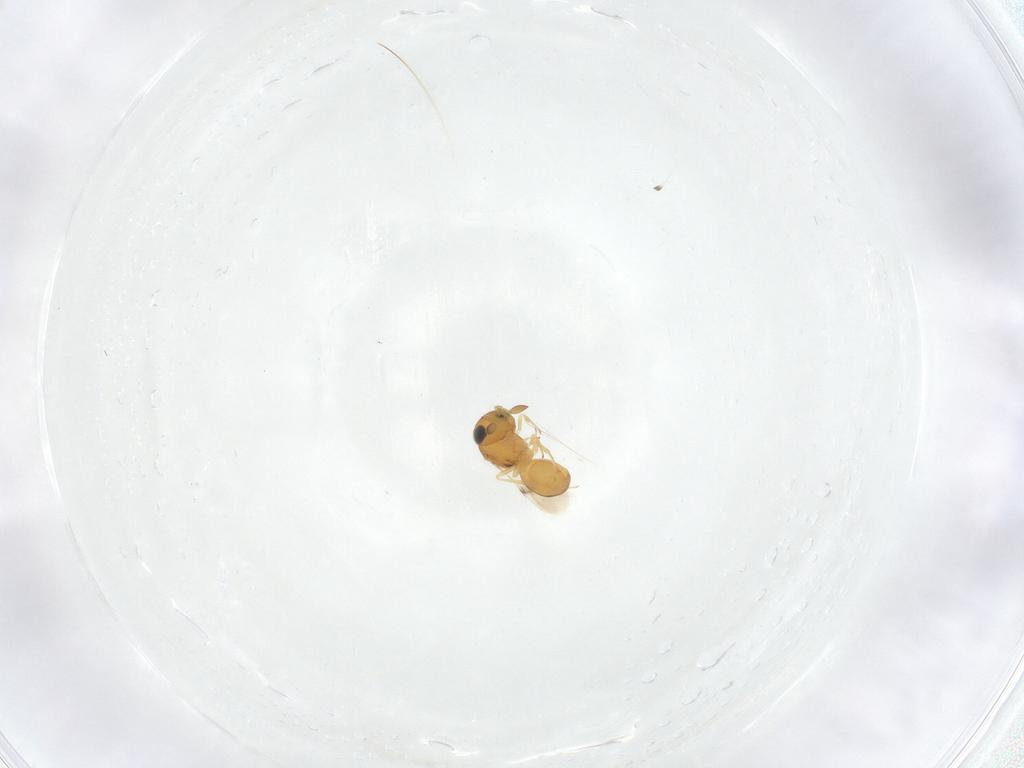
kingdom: Animalia
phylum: Arthropoda
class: Insecta
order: Hymenoptera
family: Scelionidae
